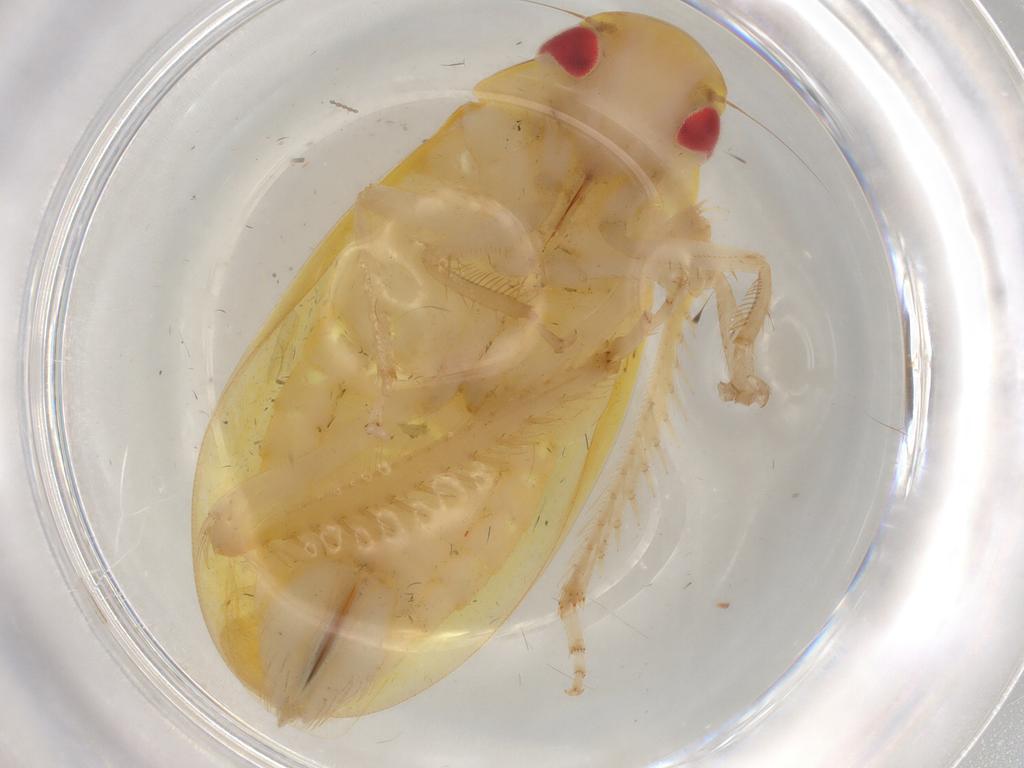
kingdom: Animalia
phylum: Arthropoda
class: Insecta
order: Hemiptera
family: Cicadellidae
